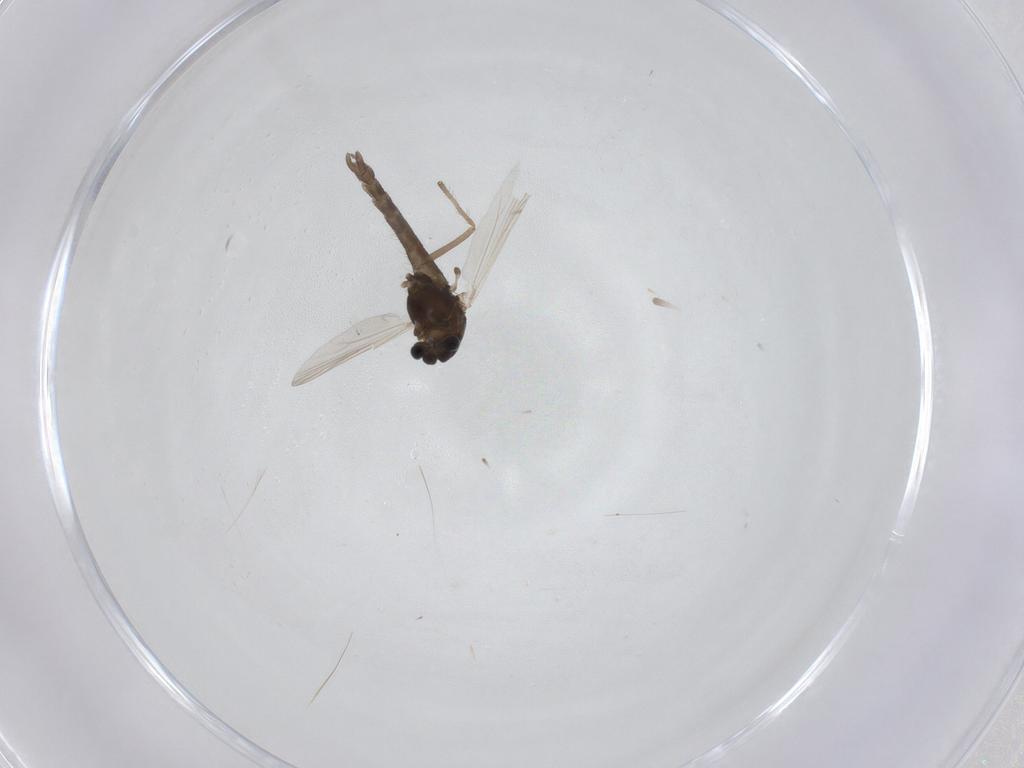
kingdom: Animalia
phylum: Arthropoda
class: Insecta
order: Diptera
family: Chironomidae
